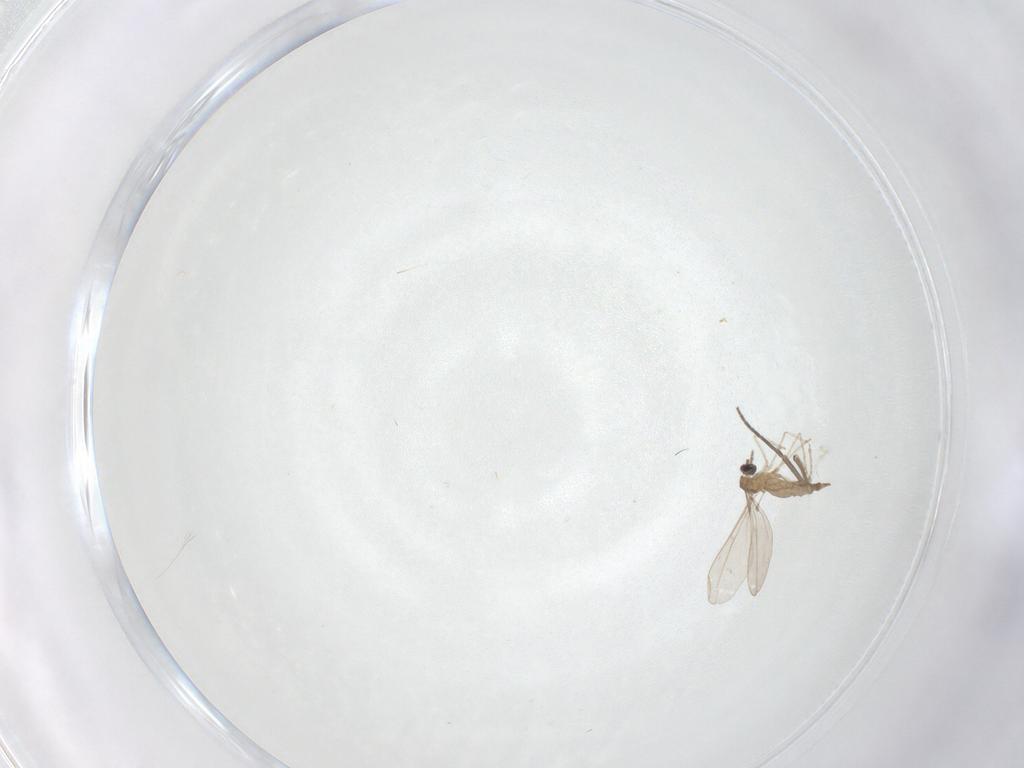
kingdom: Animalia
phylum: Arthropoda
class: Insecta
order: Diptera
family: Cecidomyiidae
